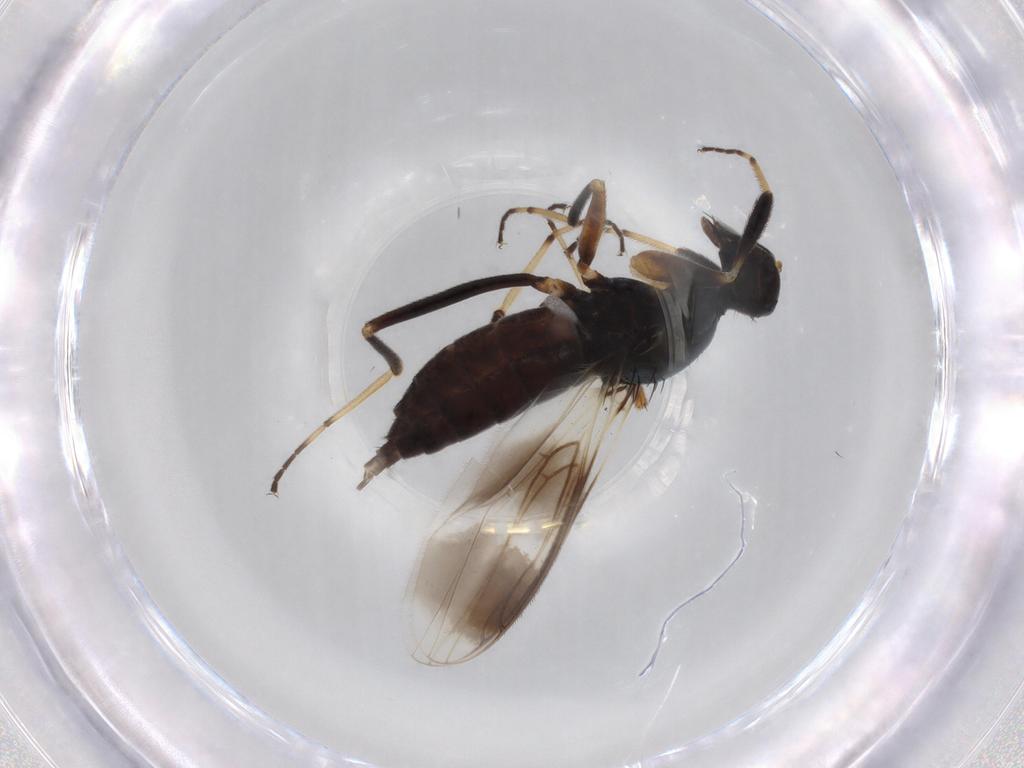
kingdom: Animalia
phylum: Arthropoda
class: Insecta
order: Diptera
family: Hybotidae
